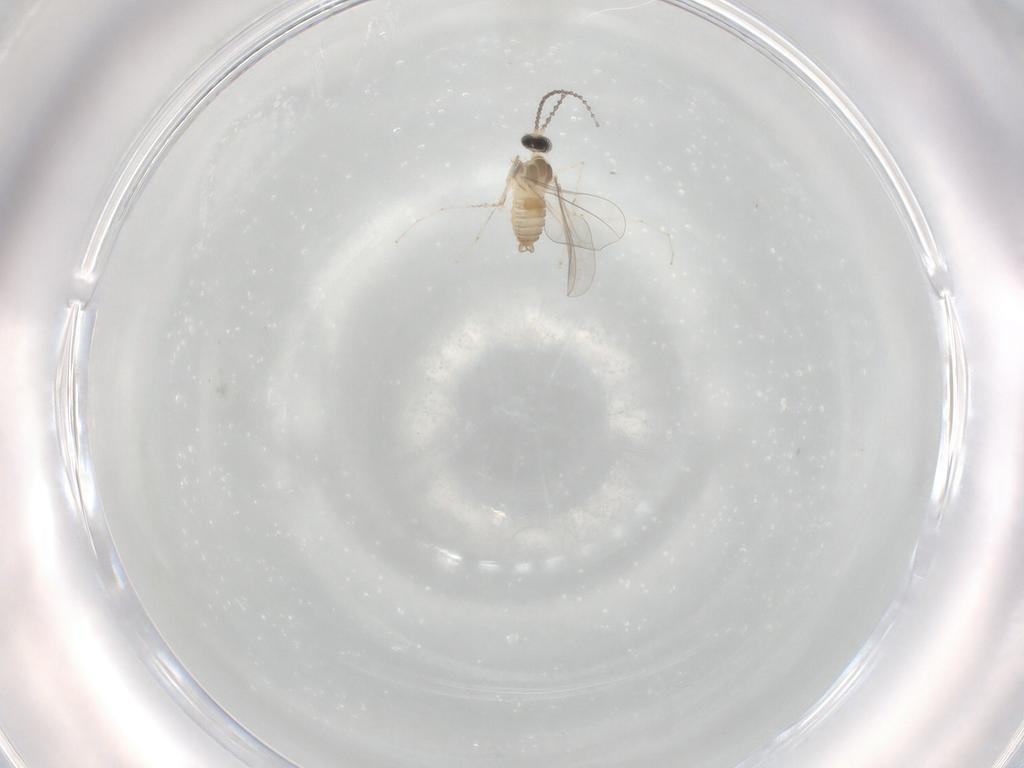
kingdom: Animalia
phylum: Arthropoda
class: Insecta
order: Diptera
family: Cecidomyiidae
